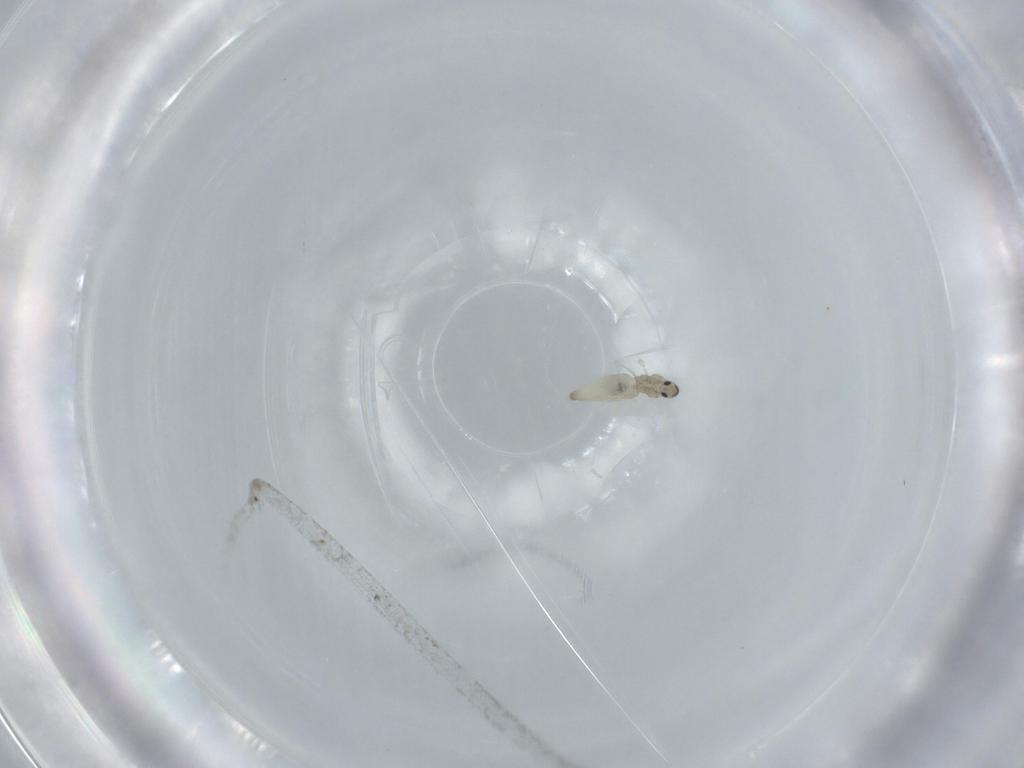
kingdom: Animalia
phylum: Arthropoda
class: Insecta
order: Diptera
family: Cecidomyiidae
